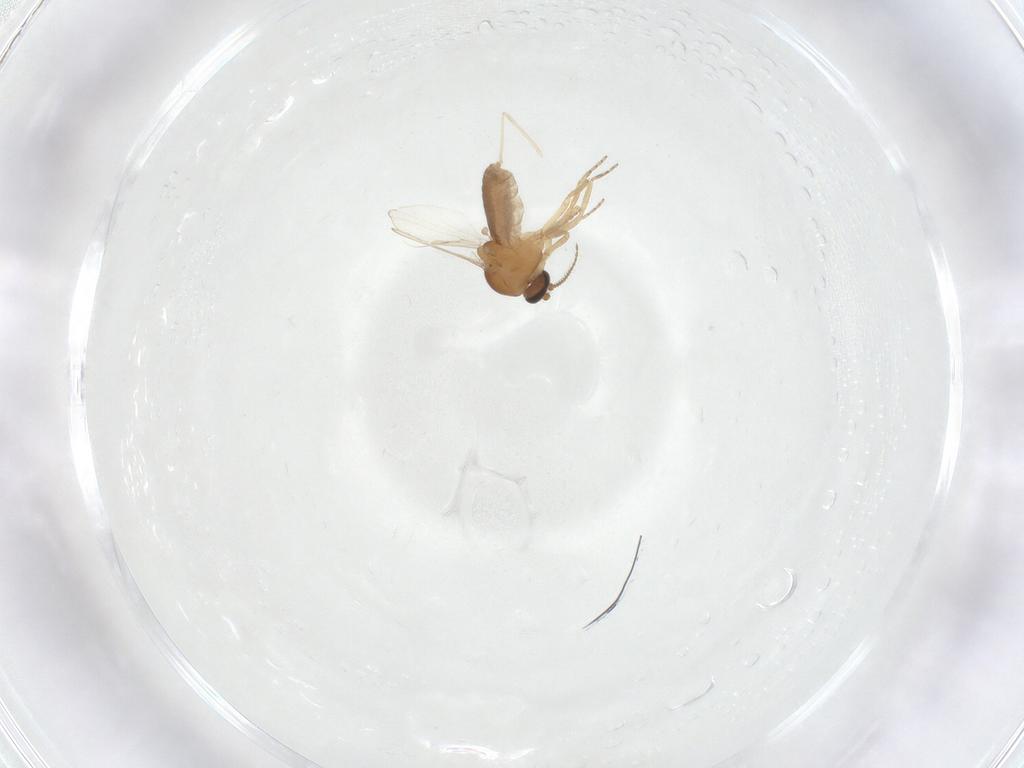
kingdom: Animalia
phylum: Arthropoda
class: Insecta
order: Diptera
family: Ceratopogonidae
